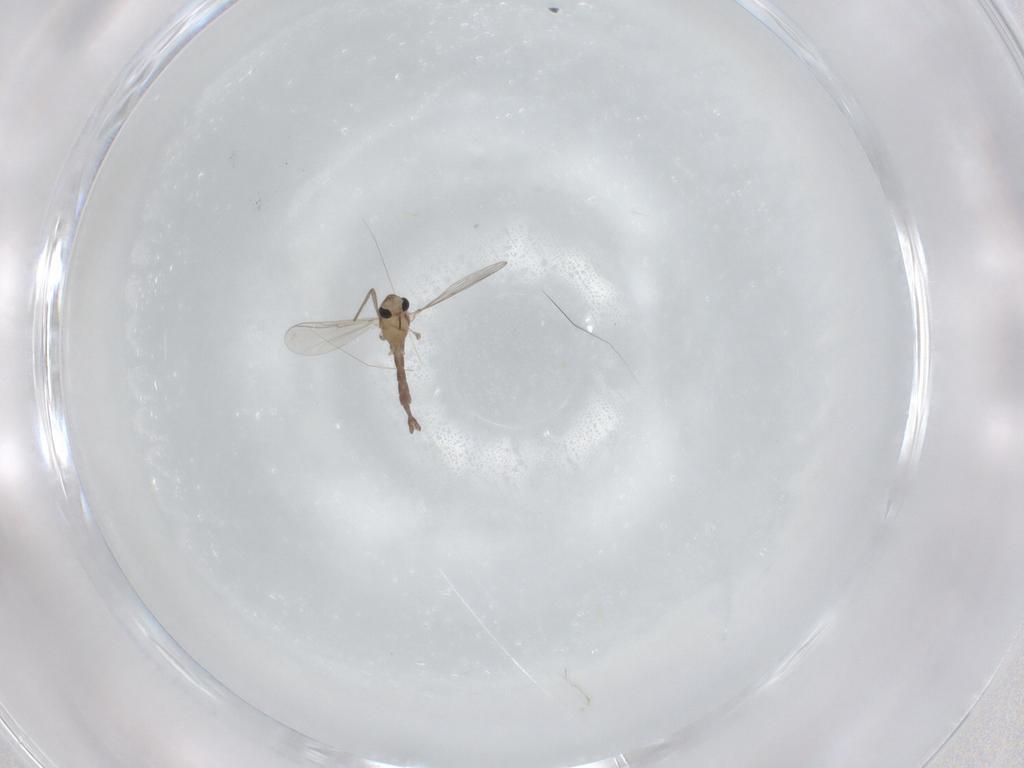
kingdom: Animalia
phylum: Arthropoda
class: Insecta
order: Diptera
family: Chironomidae
